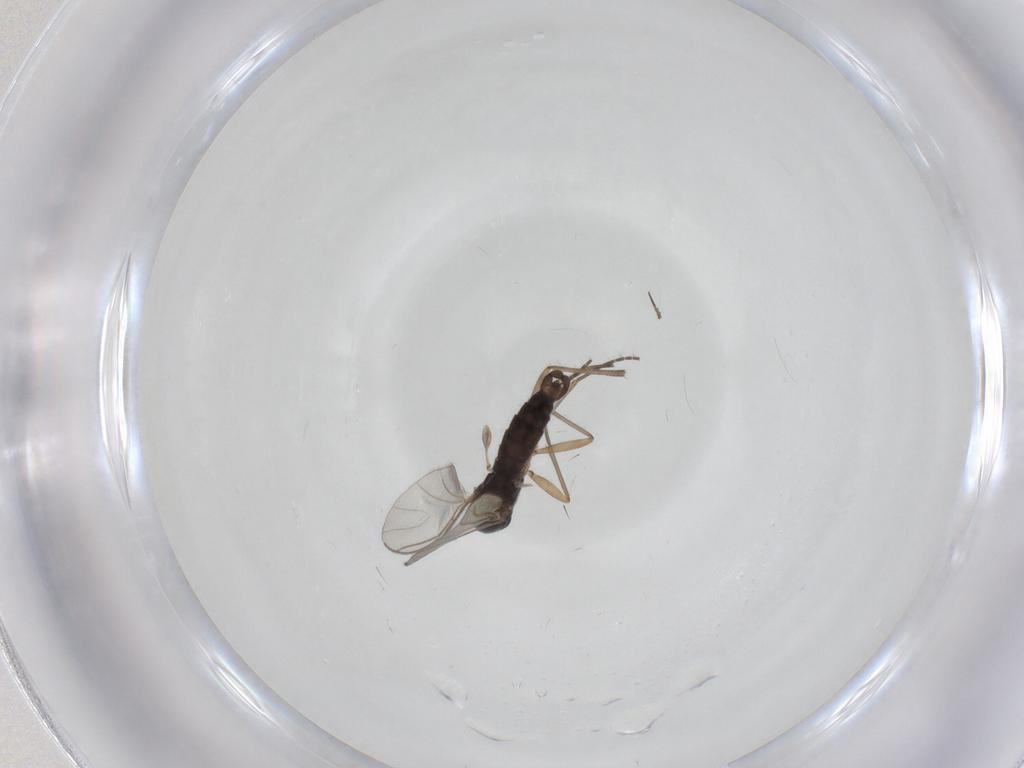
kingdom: Animalia
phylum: Arthropoda
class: Insecta
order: Diptera
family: Sciaridae
